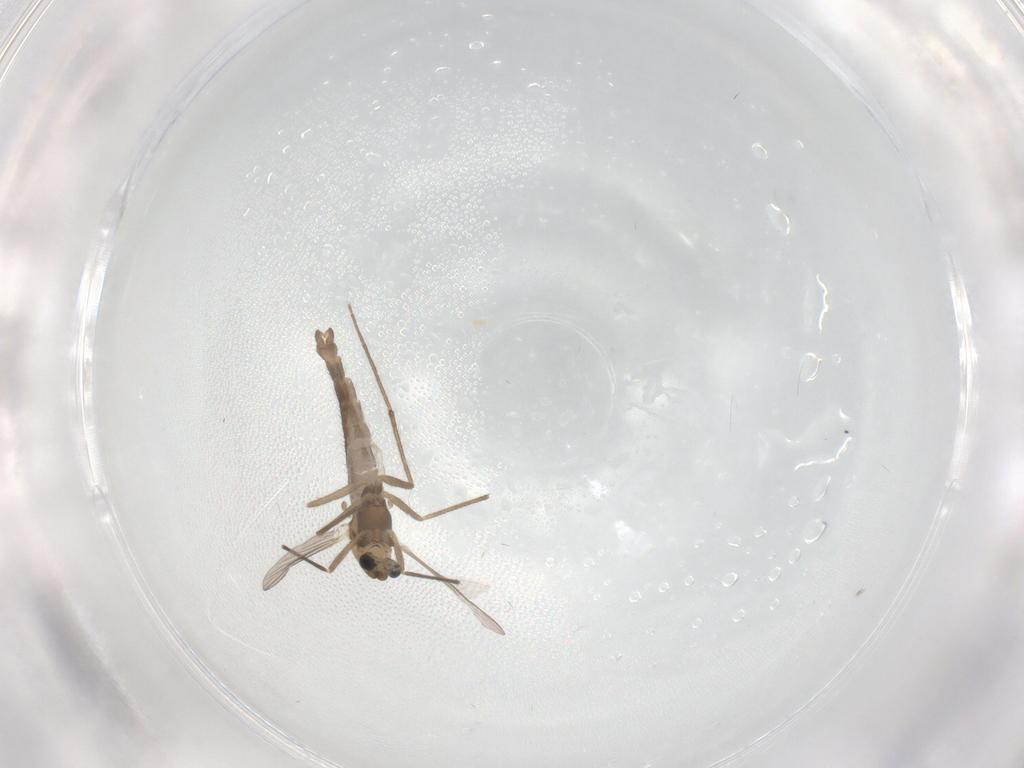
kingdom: Animalia
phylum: Arthropoda
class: Insecta
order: Diptera
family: Chironomidae
